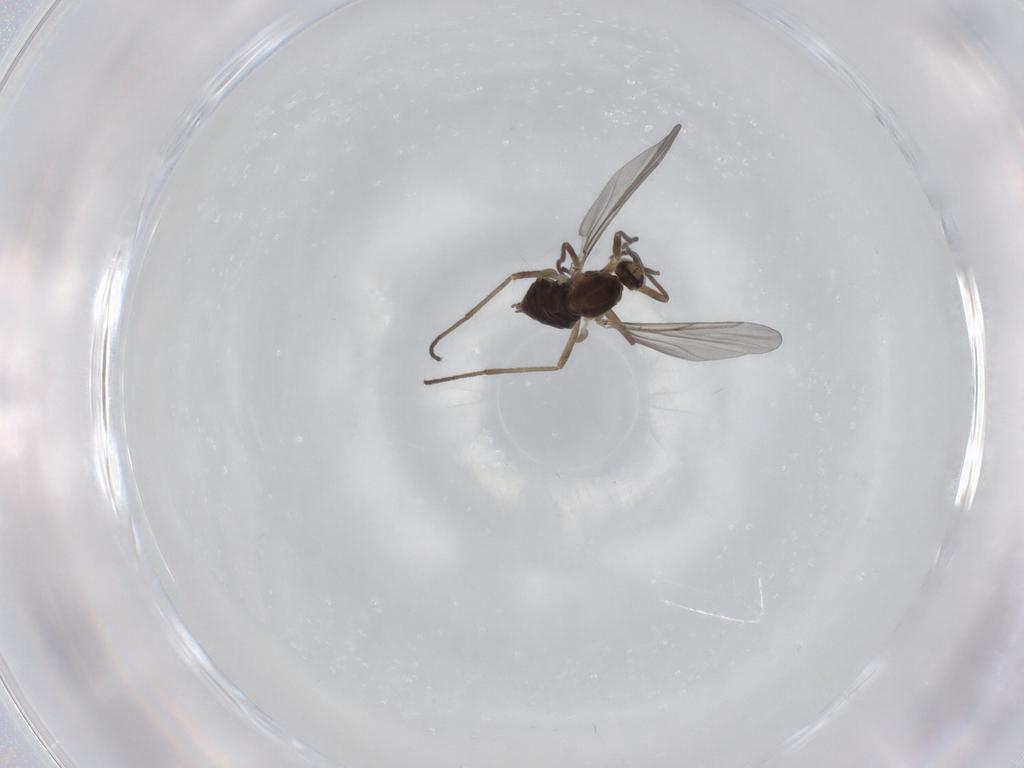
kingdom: Animalia
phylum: Arthropoda
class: Insecta
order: Diptera
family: Cecidomyiidae
